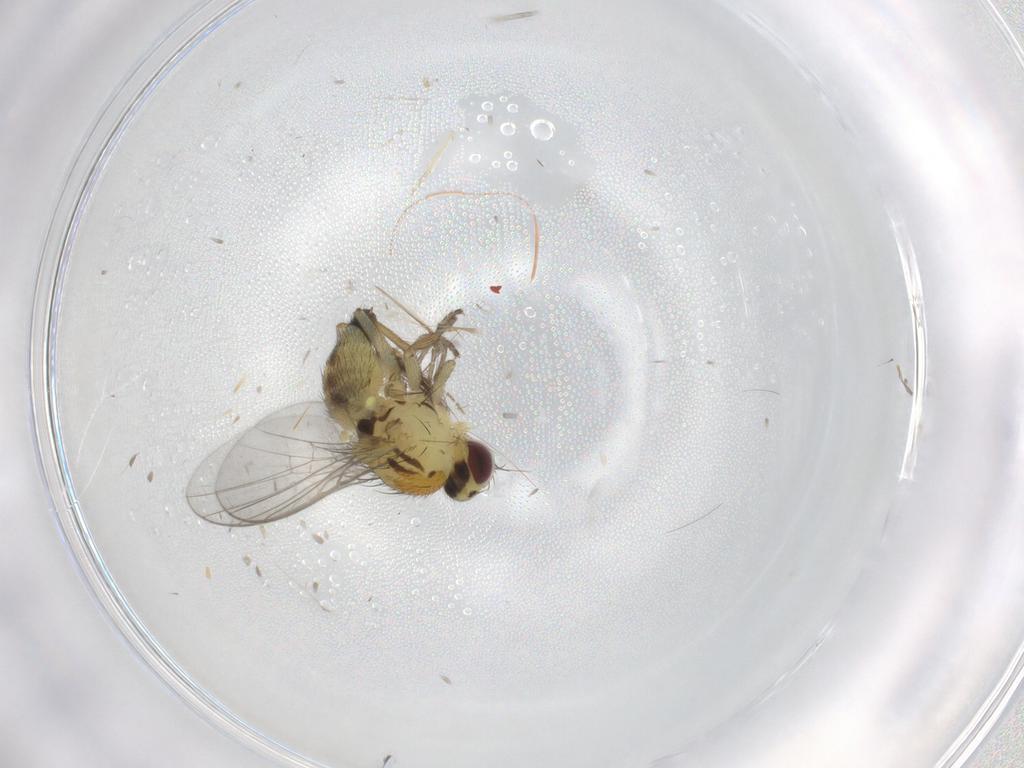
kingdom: Animalia
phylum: Arthropoda
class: Insecta
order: Diptera
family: Agromyzidae
